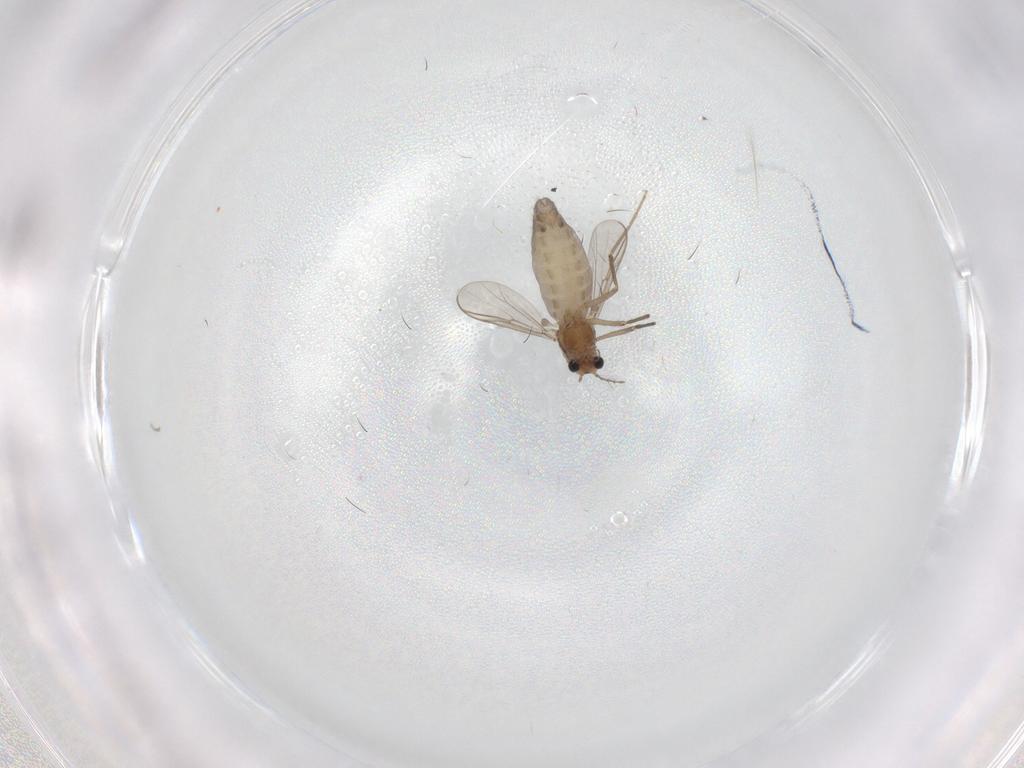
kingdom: Animalia
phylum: Arthropoda
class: Insecta
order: Diptera
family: Chironomidae
